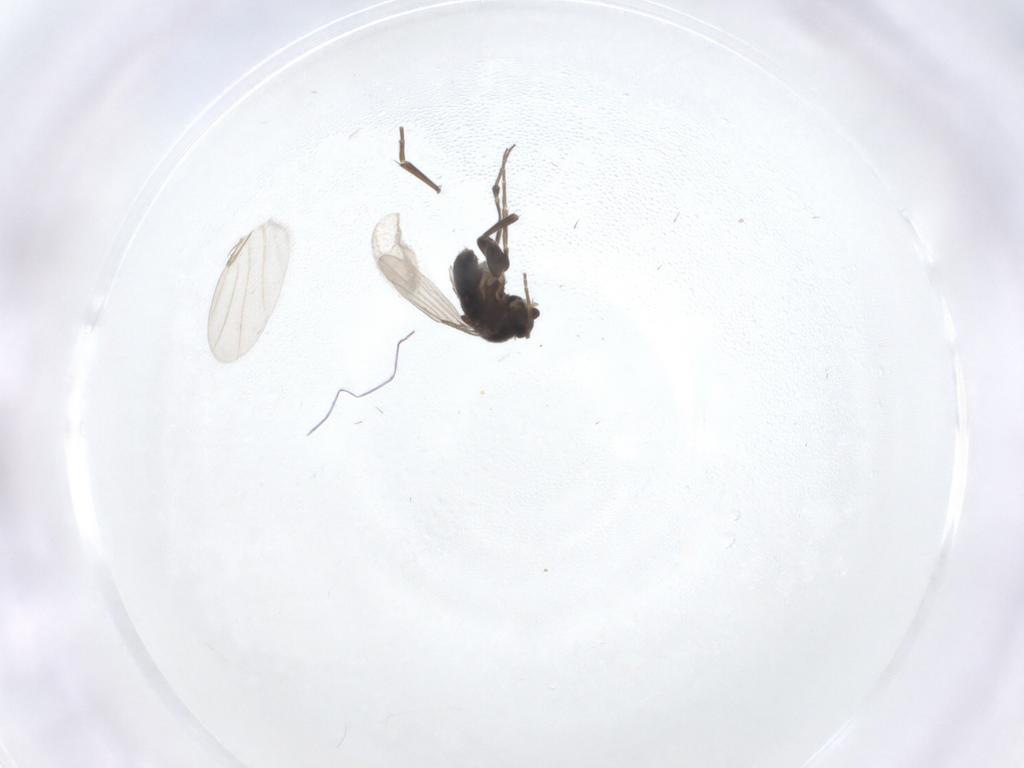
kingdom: Animalia
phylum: Arthropoda
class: Insecta
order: Diptera
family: Phoridae
